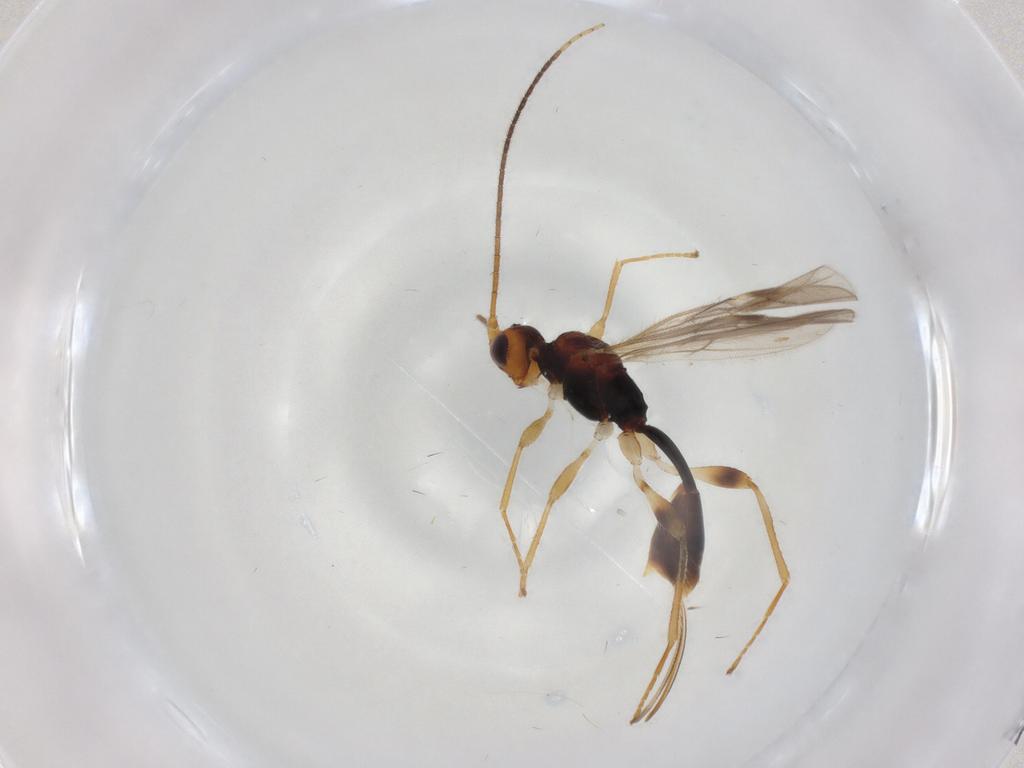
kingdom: Animalia
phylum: Arthropoda
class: Insecta
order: Hymenoptera
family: Braconidae
